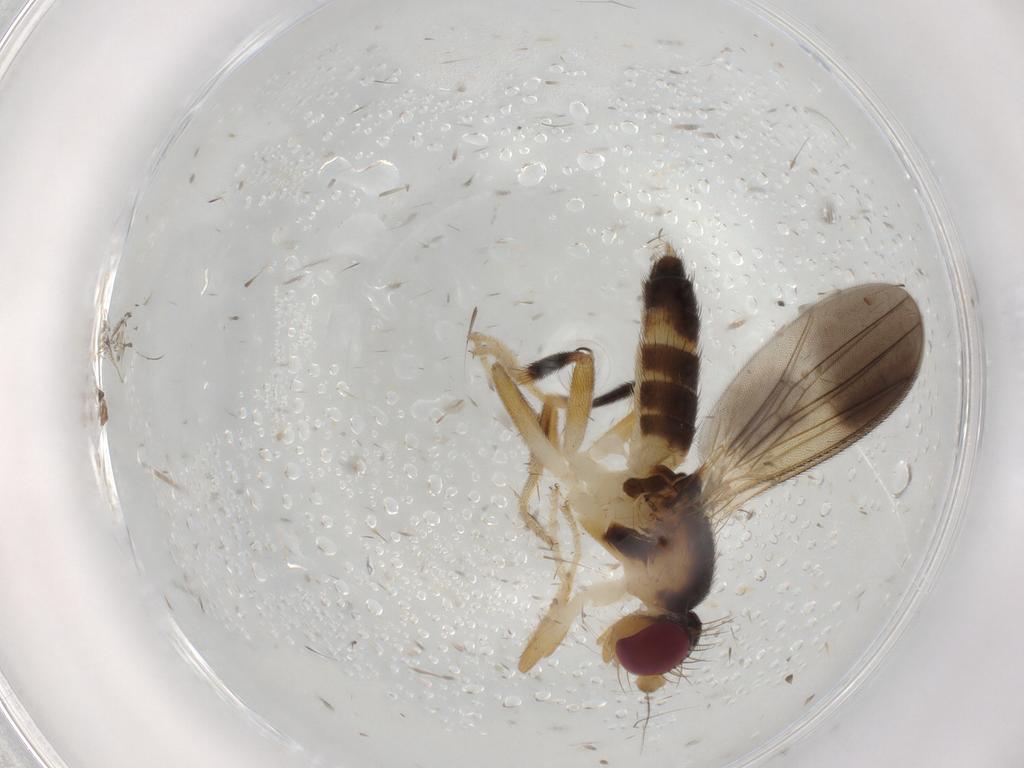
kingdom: Animalia
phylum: Arthropoda
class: Insecta
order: Diptera
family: Clusiidae
